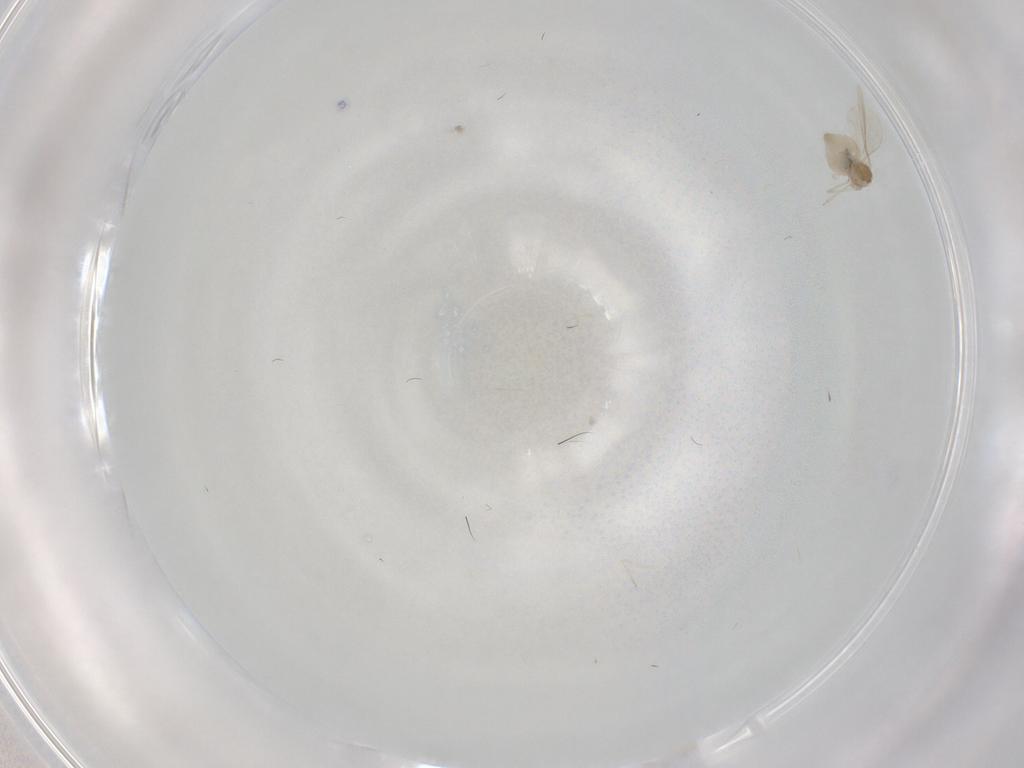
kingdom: Animalia
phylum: Arthropoda
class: Insecta
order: Diptera
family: Cecidomyiidae
